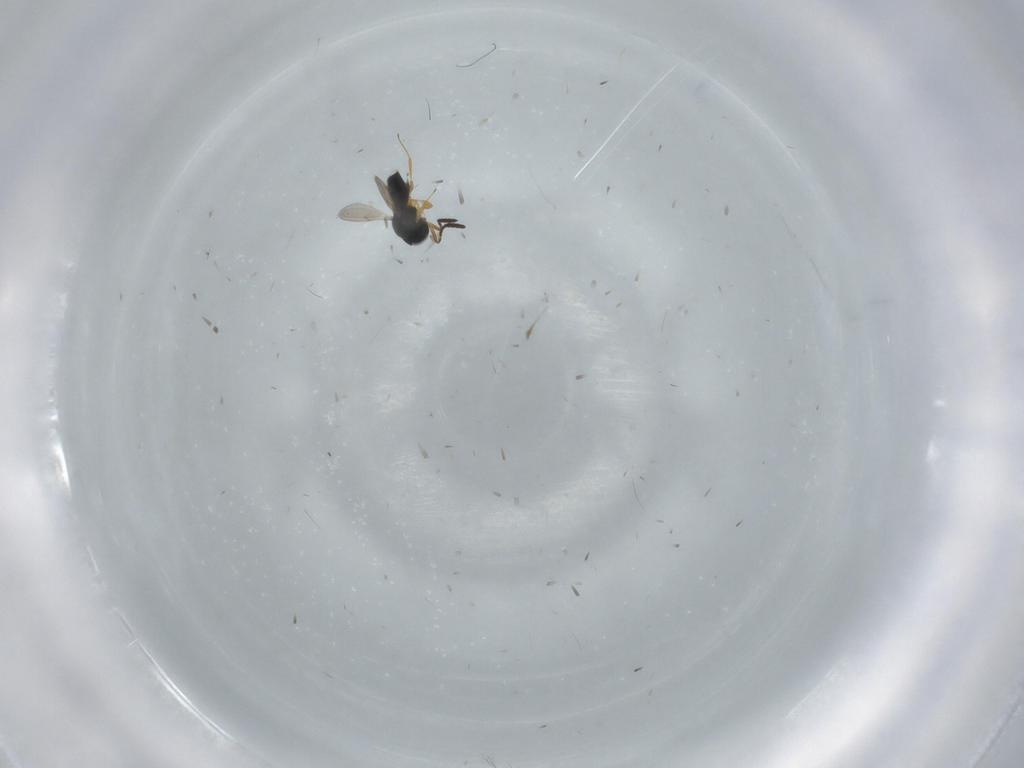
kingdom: Animalia
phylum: Arthropoda
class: Insecta
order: Hymenoptera
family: Scelionidae
